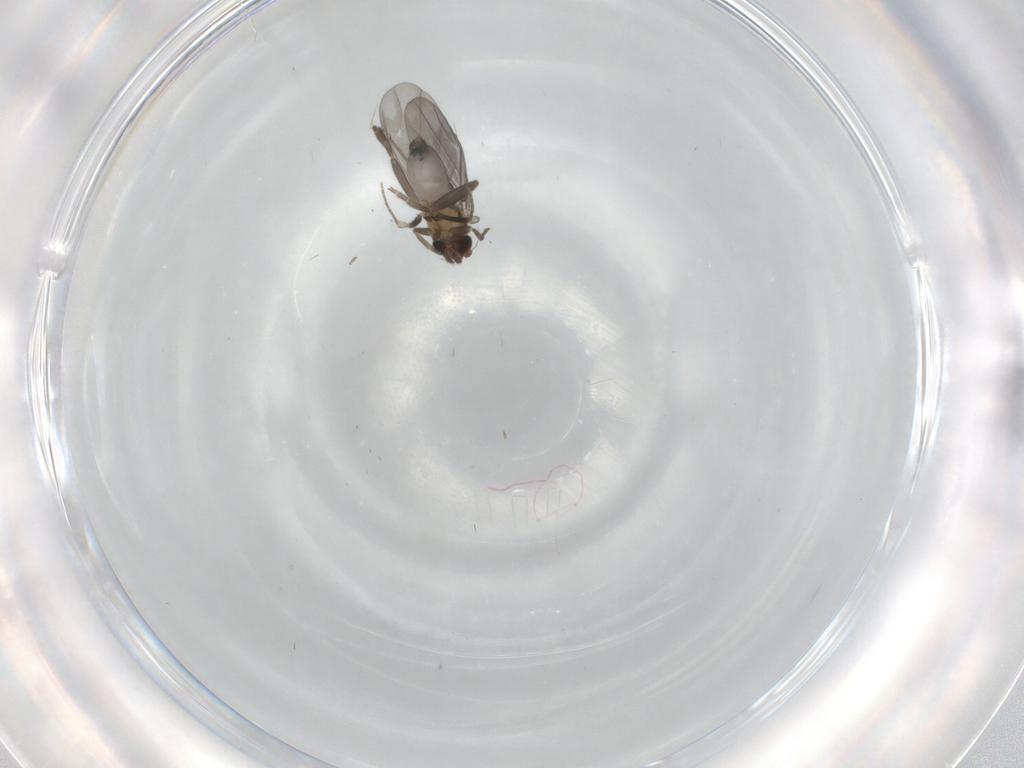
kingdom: Animalia
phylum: Arthropoda
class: Insecta
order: Diptera
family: Phoridae
